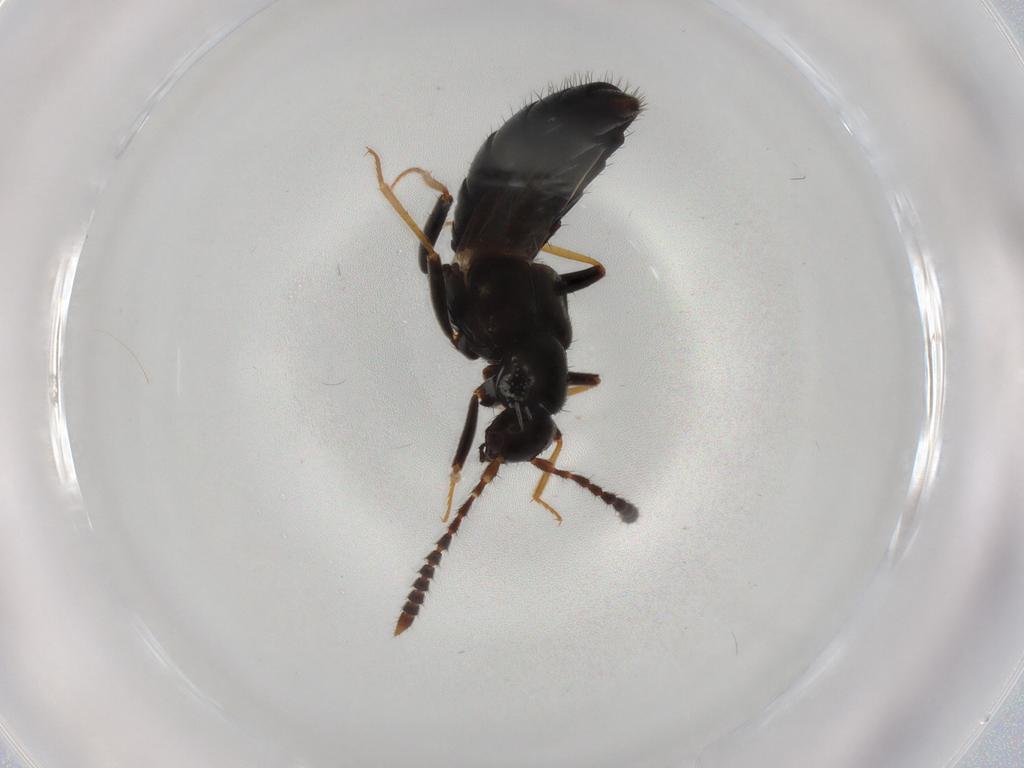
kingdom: Animalia
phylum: Arthropoda
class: Insecta
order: Coleoptera
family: Staphylinidae
